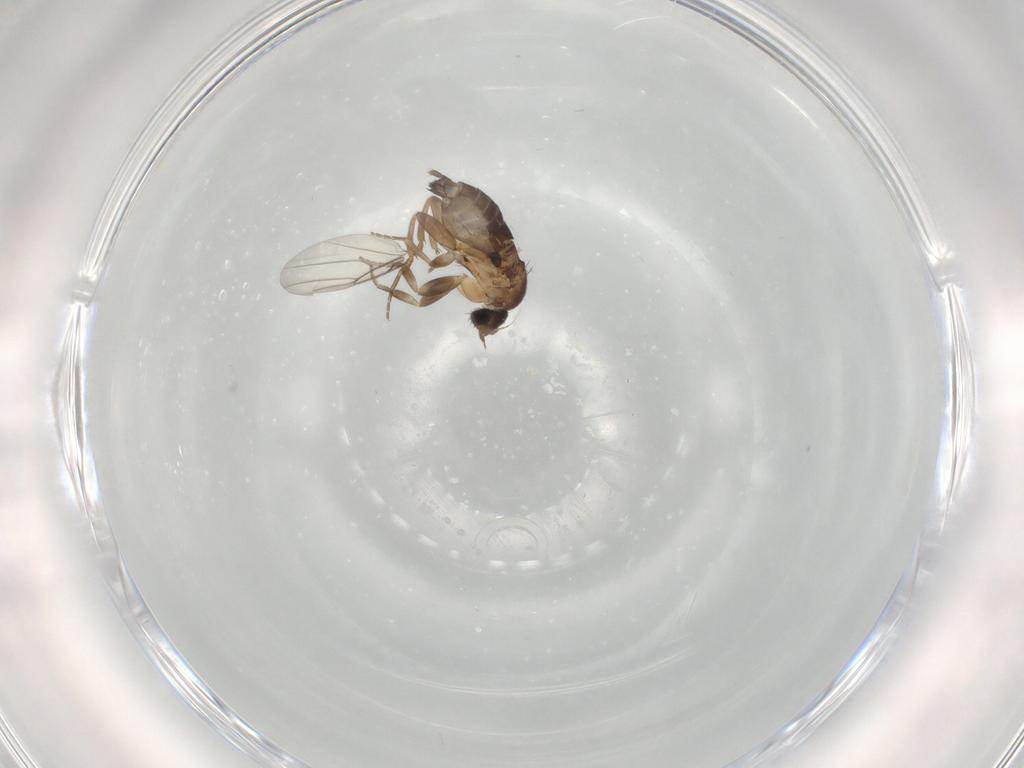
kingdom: Animalia
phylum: Arthropoda
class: Insecta
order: Diptera
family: Phoridae
